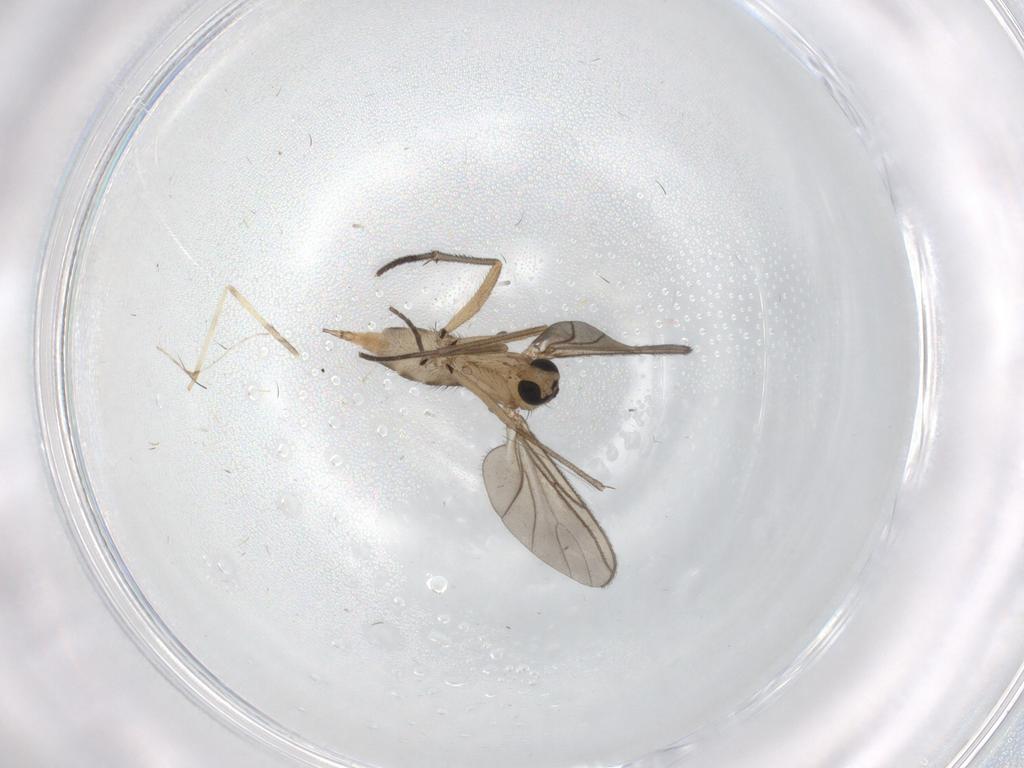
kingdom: Animalia
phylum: Arthropoda
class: Insecta
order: Diptera
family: Sciaridae
